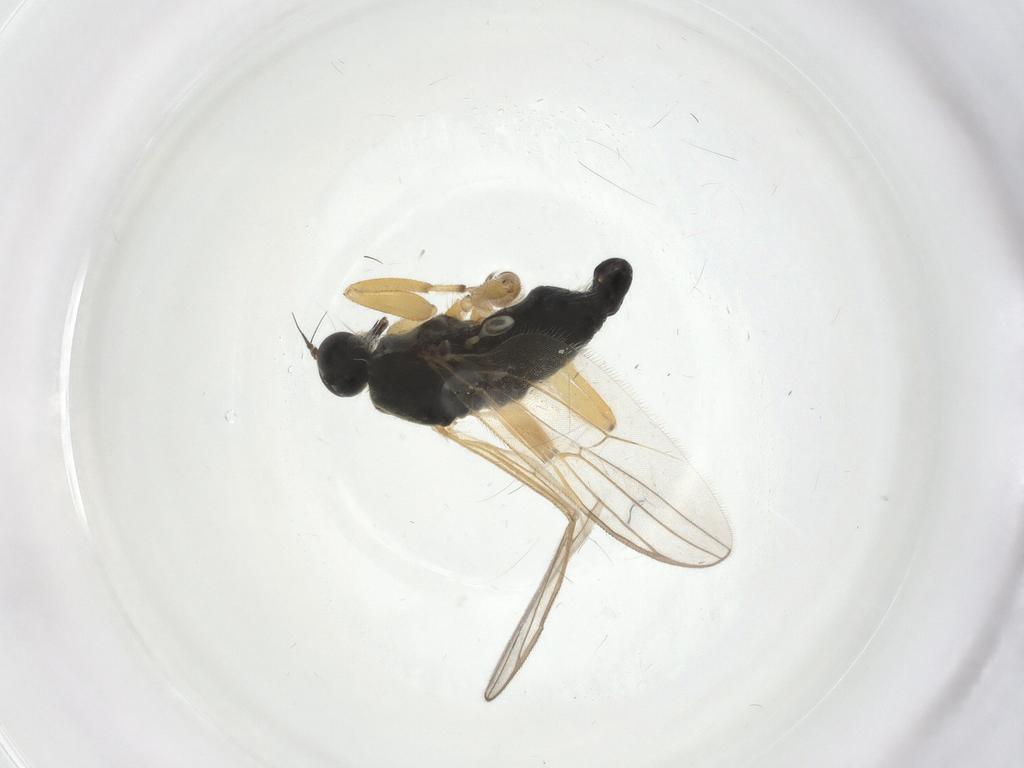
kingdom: Animalia
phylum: Arthropoda
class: Insecta
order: Diptera
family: Hybotidae
